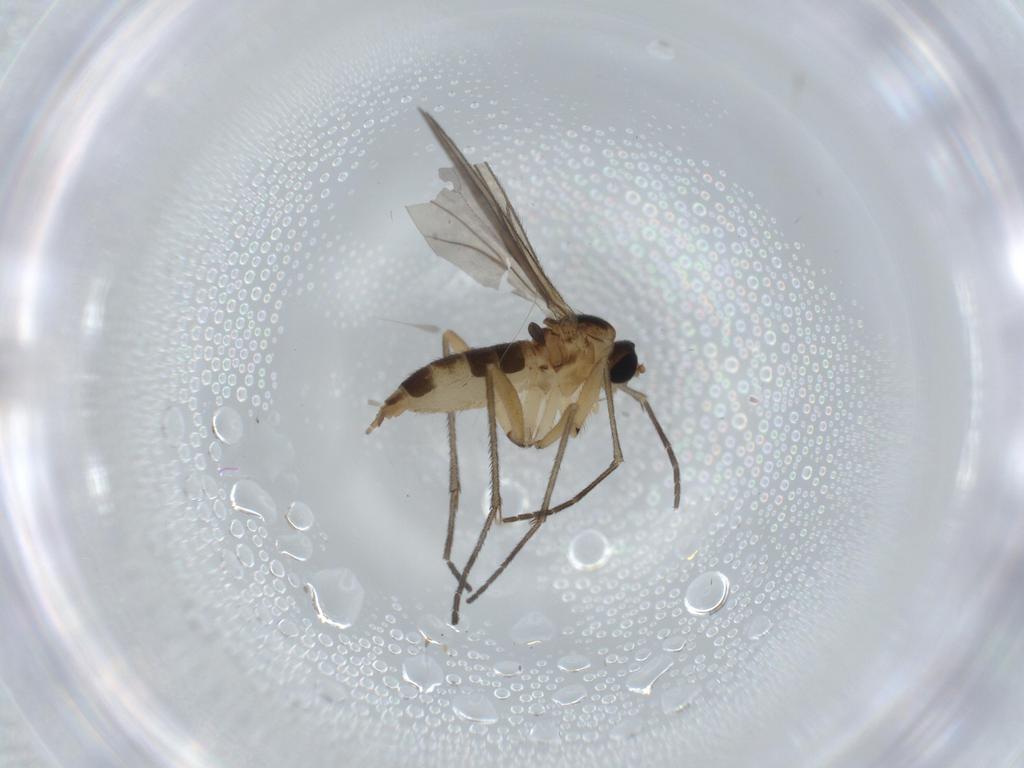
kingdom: Animalia
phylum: Arthropoda
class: Insecta
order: Diptera
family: Sciaridae
